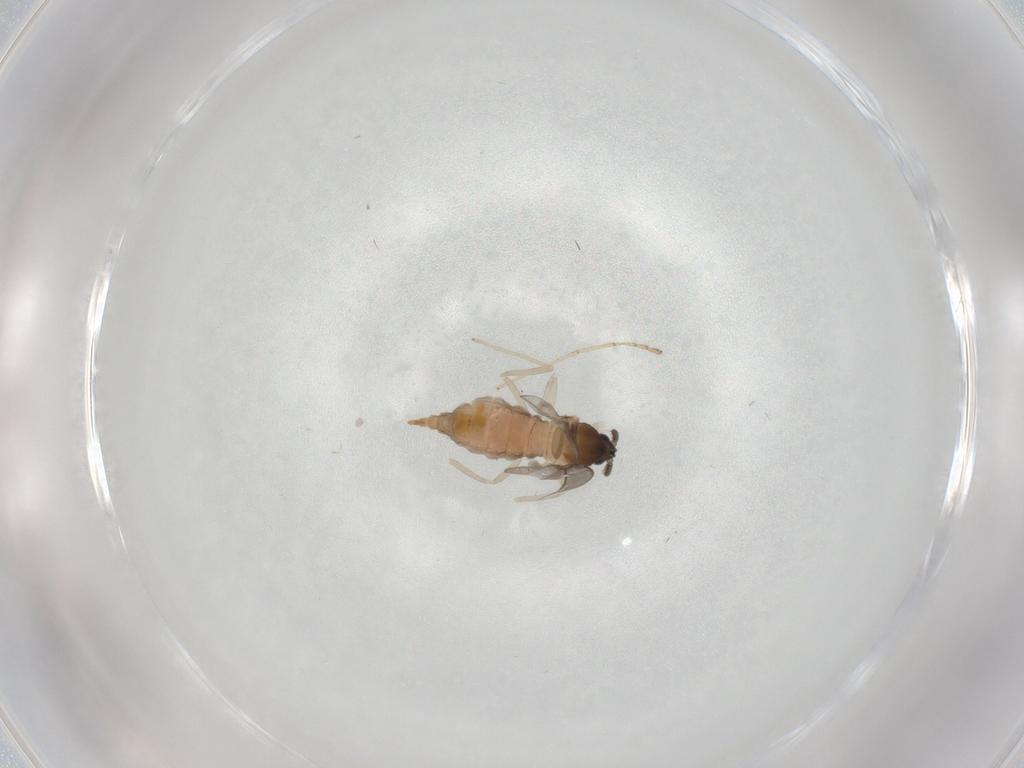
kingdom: Animalia
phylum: Arthropoda
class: Insecta
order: Diptera
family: Cecidomyiidae
